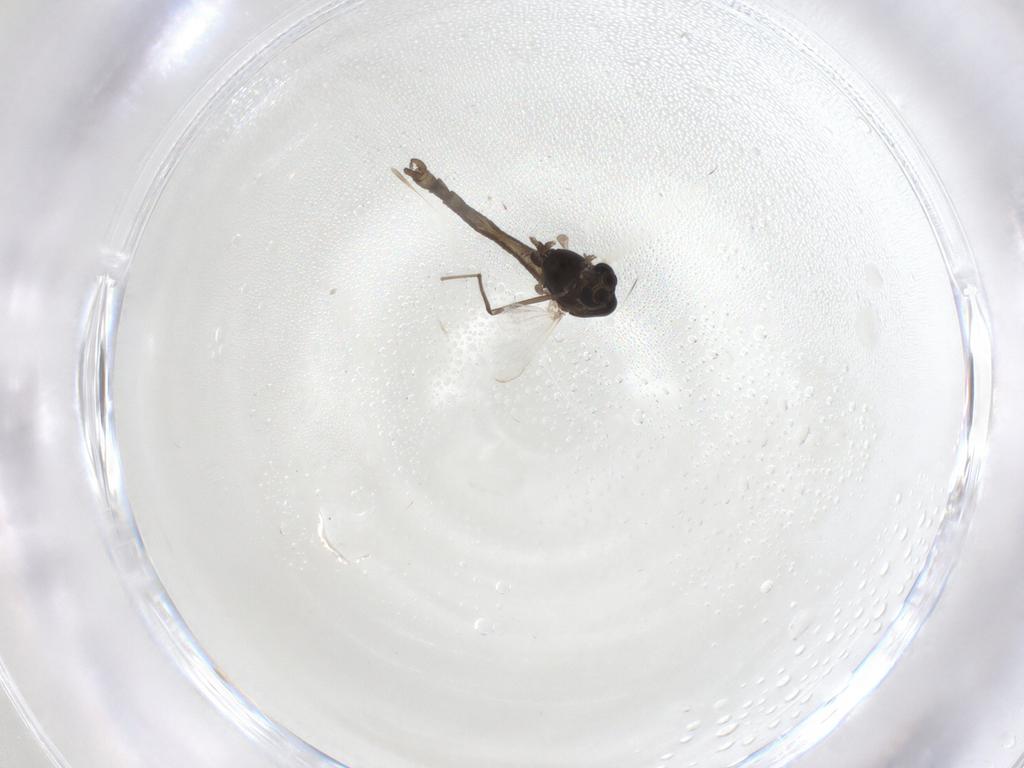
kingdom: Animalia
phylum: Arthropoda
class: Insecta
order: Diptera
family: Chironomidae
